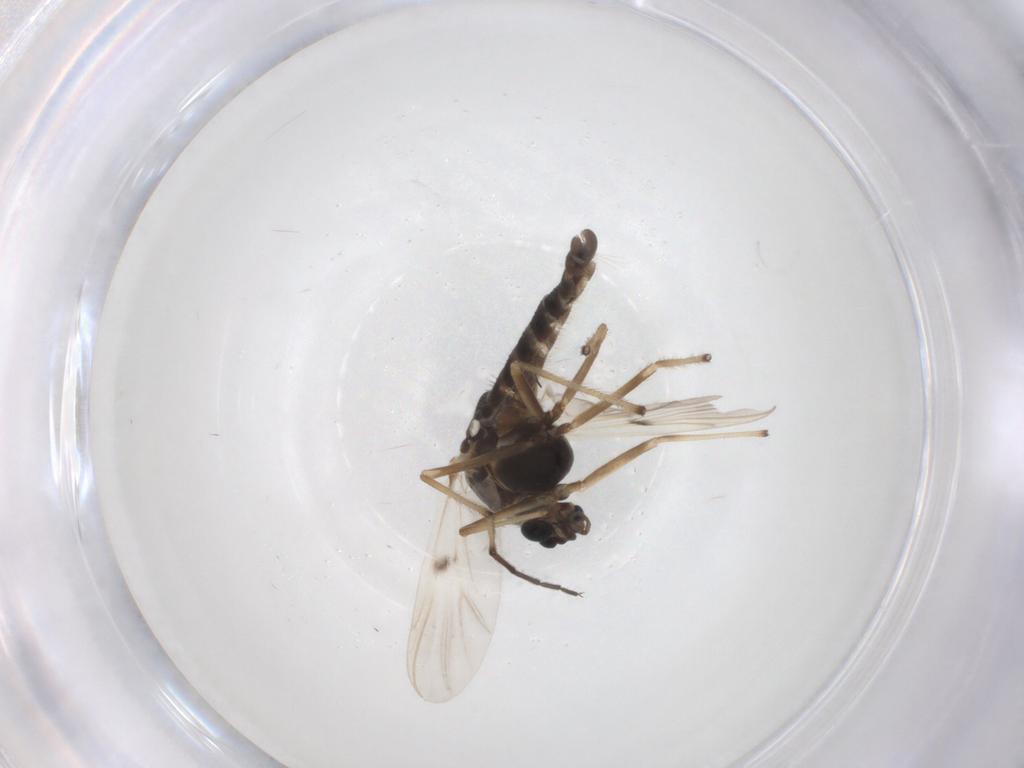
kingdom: Animalia
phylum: Arthropoda
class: Insecta
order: Diptera
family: Chironomidae
